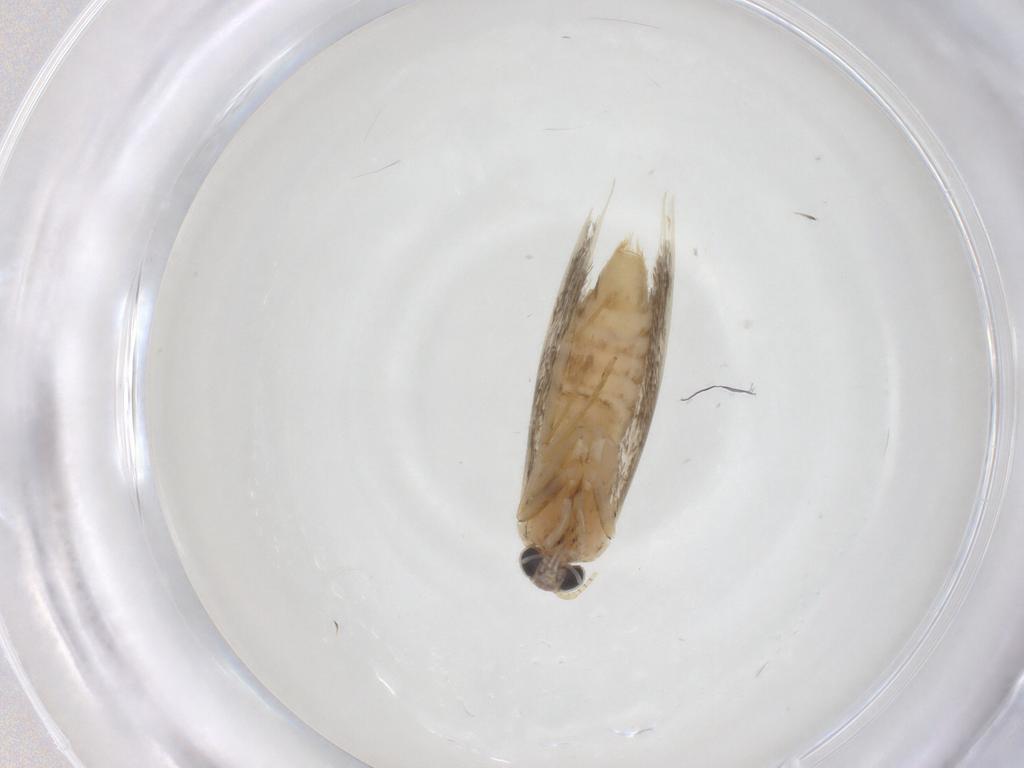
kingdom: Animalia
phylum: Arthropoda
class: Insecta
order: Lepidoptera
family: Tineidae
